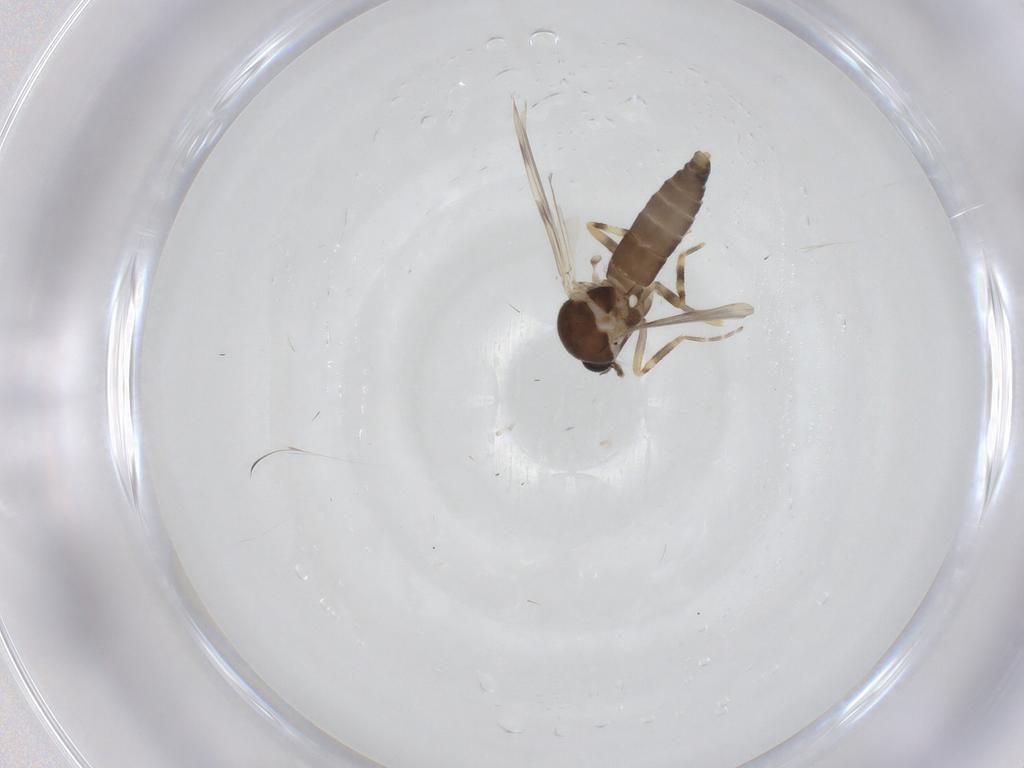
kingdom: Animalia
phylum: Arthropoda
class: Insecta
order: Diptera
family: Ceratopogonidae
